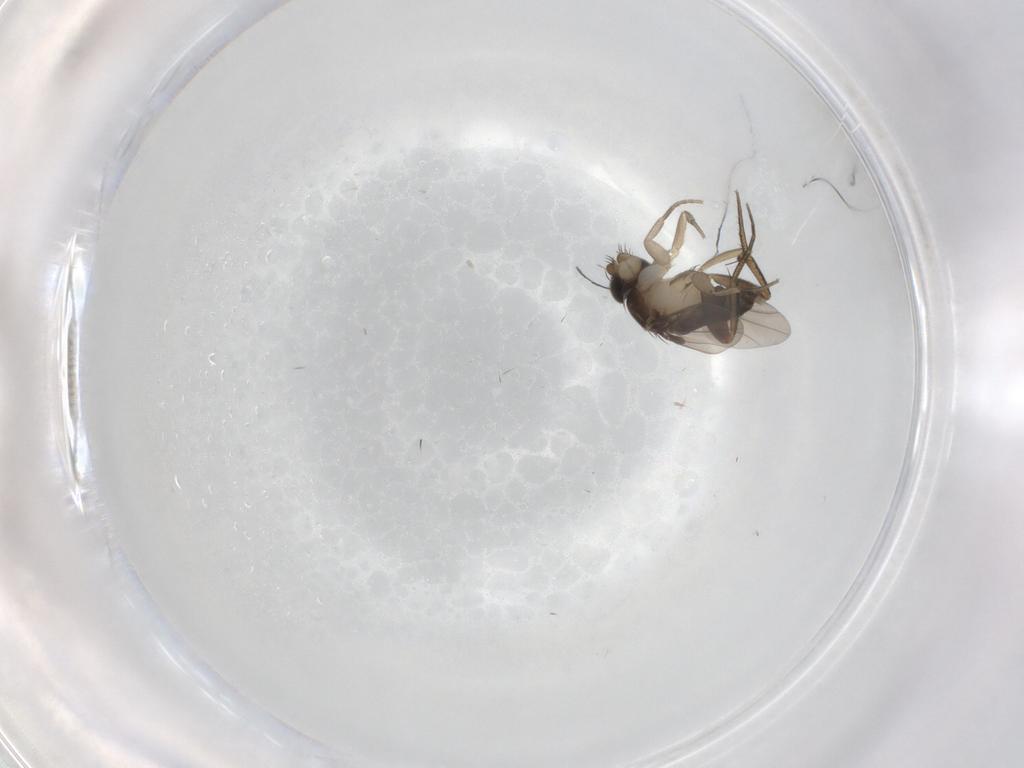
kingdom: Animalia
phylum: Arthropoda
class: Insecta
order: Diptera
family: Phoridae
